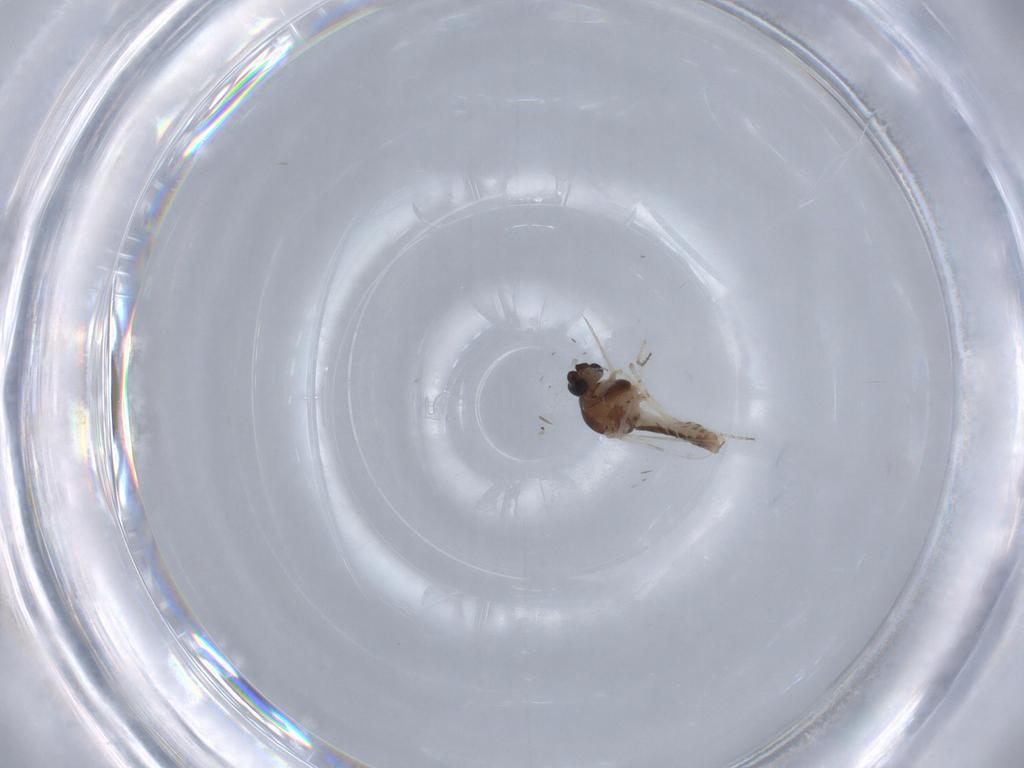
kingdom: Animalia
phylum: Arthropoda
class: Insecta
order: Diptera
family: Ceratopogonidae
